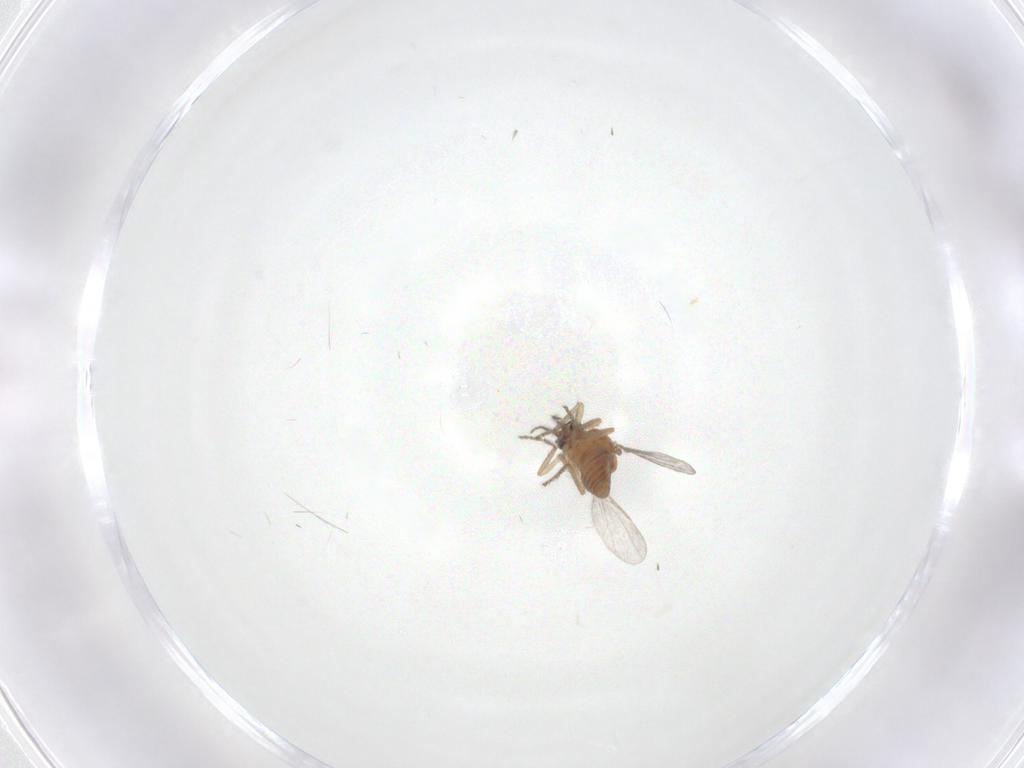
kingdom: Animalia
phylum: Arthropoda
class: Insecta
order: Diptera
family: Ceratopogonidae
